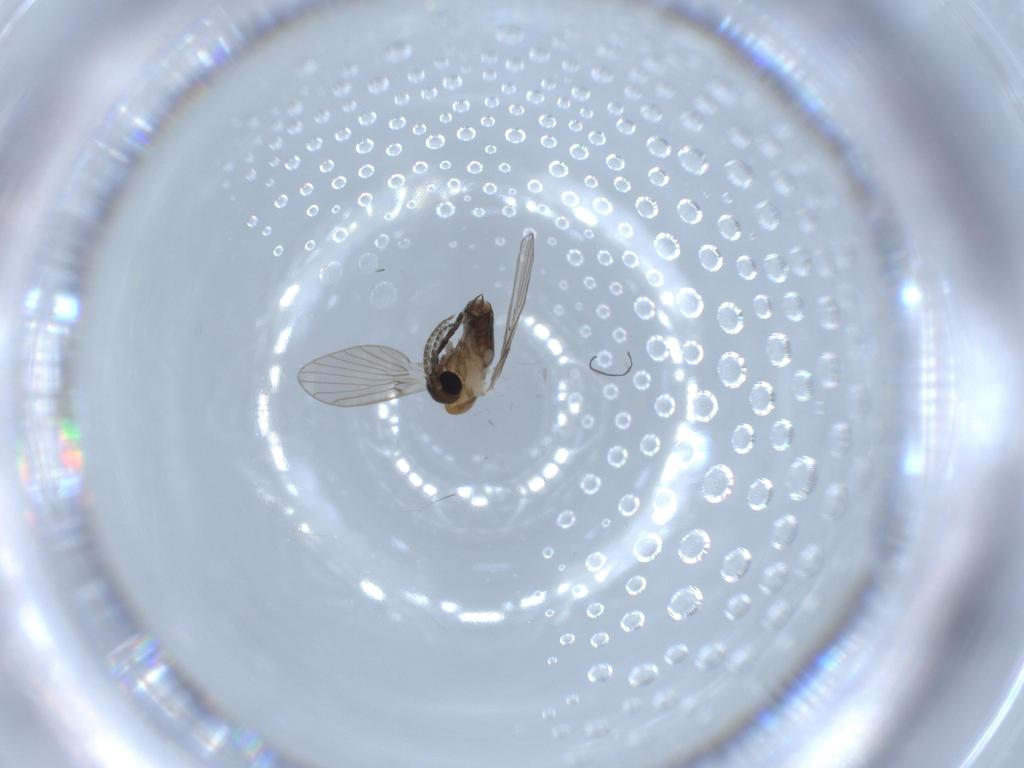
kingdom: Animalia
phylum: Arthropoda
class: Insecta
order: Diptera
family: Psychodidae
